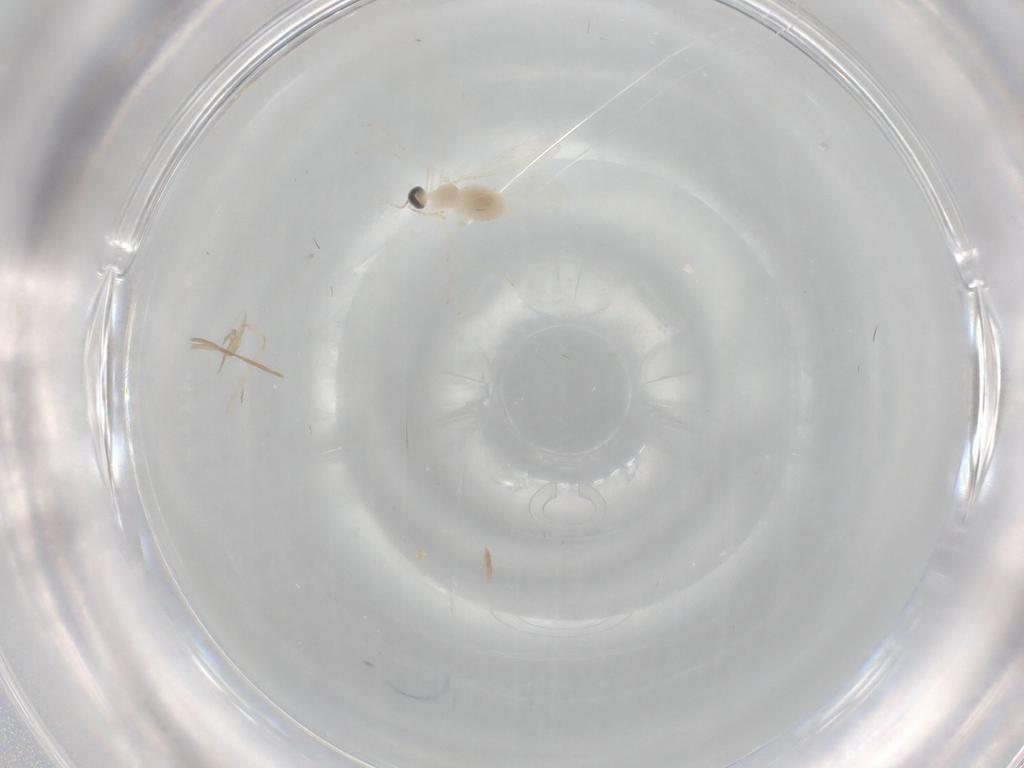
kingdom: Animalia
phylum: Arthropoda
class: Insecta
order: Diptera
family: Cecidomyiidae
